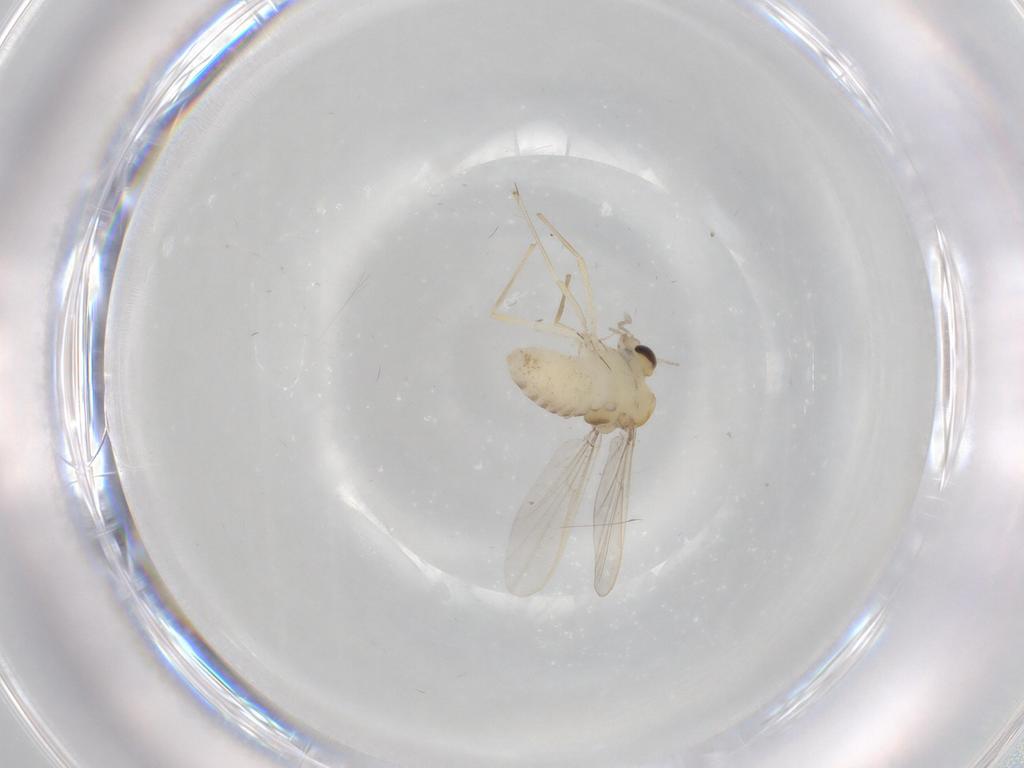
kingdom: Animalia
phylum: Arthropoda
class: Insecta
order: Diptera
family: Chironomidae
